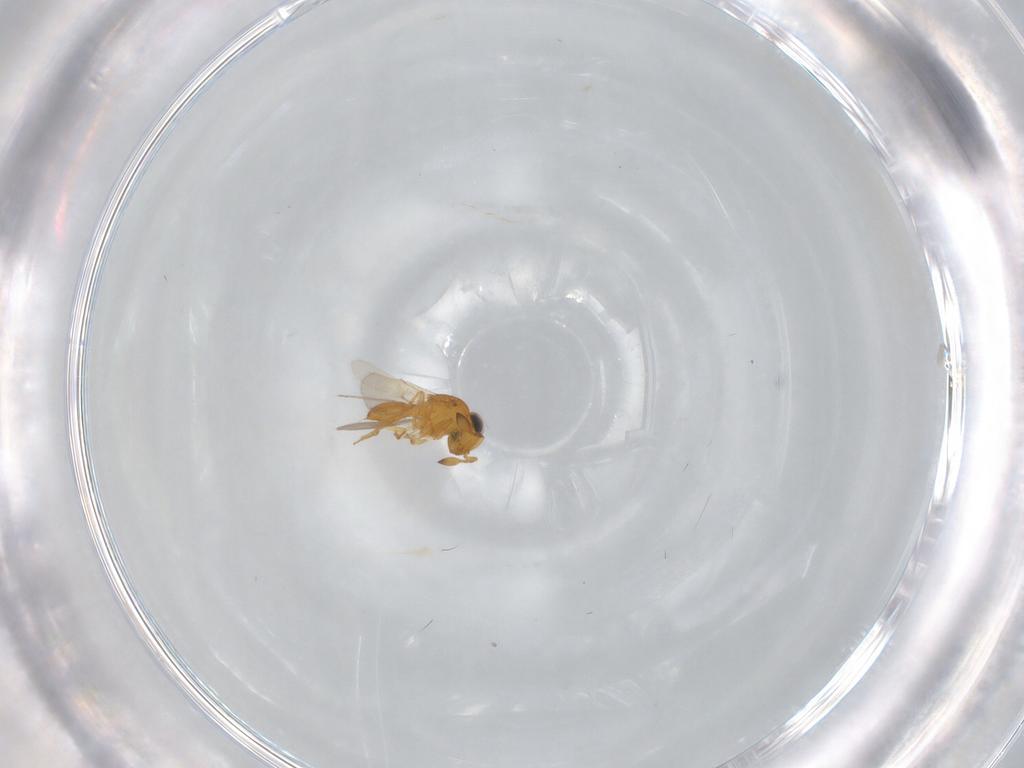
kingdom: Animalia
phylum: Arthropoda
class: Insecta
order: Hymenoptera
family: Scelionidae
